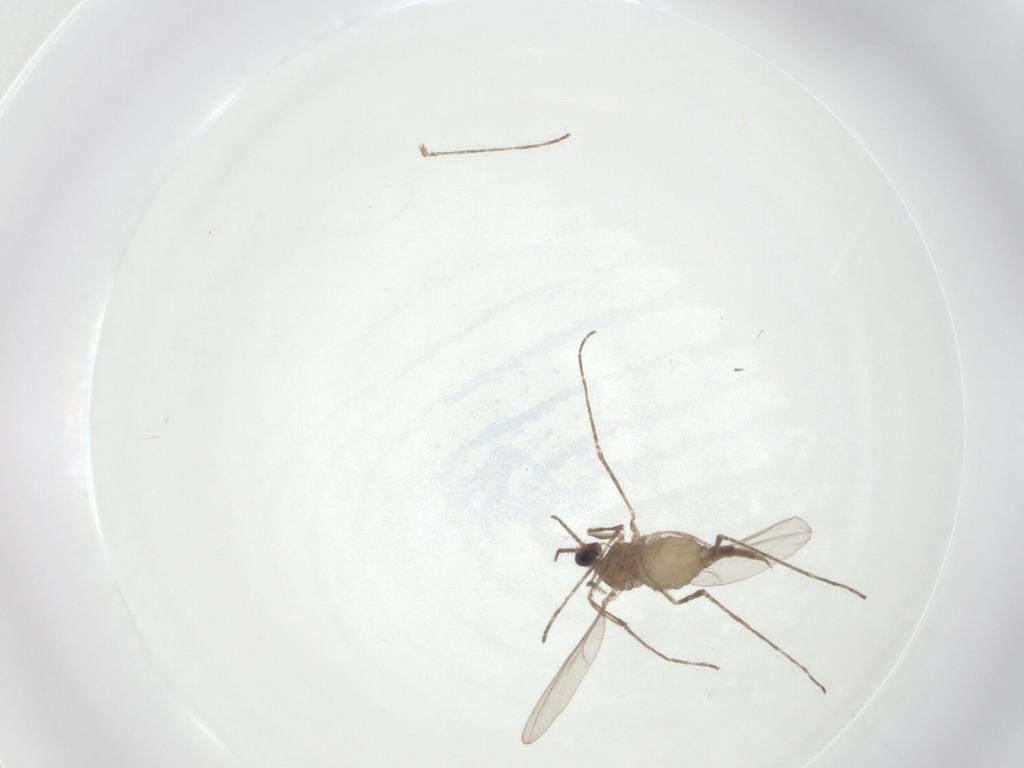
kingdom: Animalia
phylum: Arthropoda
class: Insecta
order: Diptera
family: Cecidomyiidae
